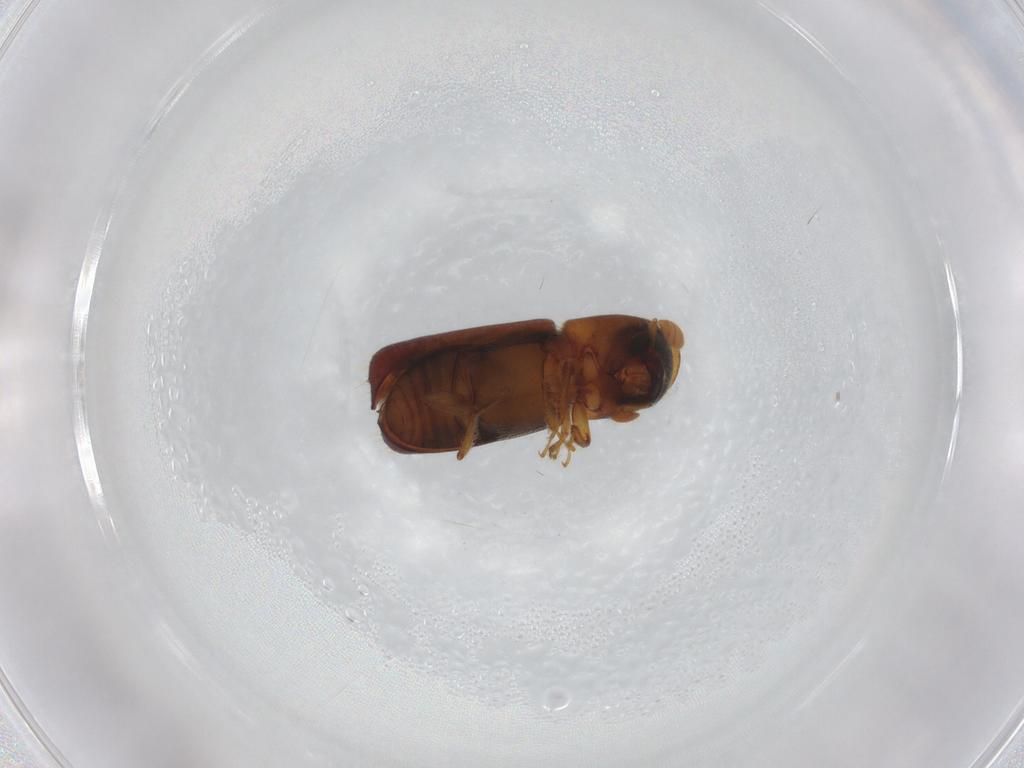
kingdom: Animalia
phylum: Arthropoda
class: Insecta
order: Coleoptera
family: Curculionidae
